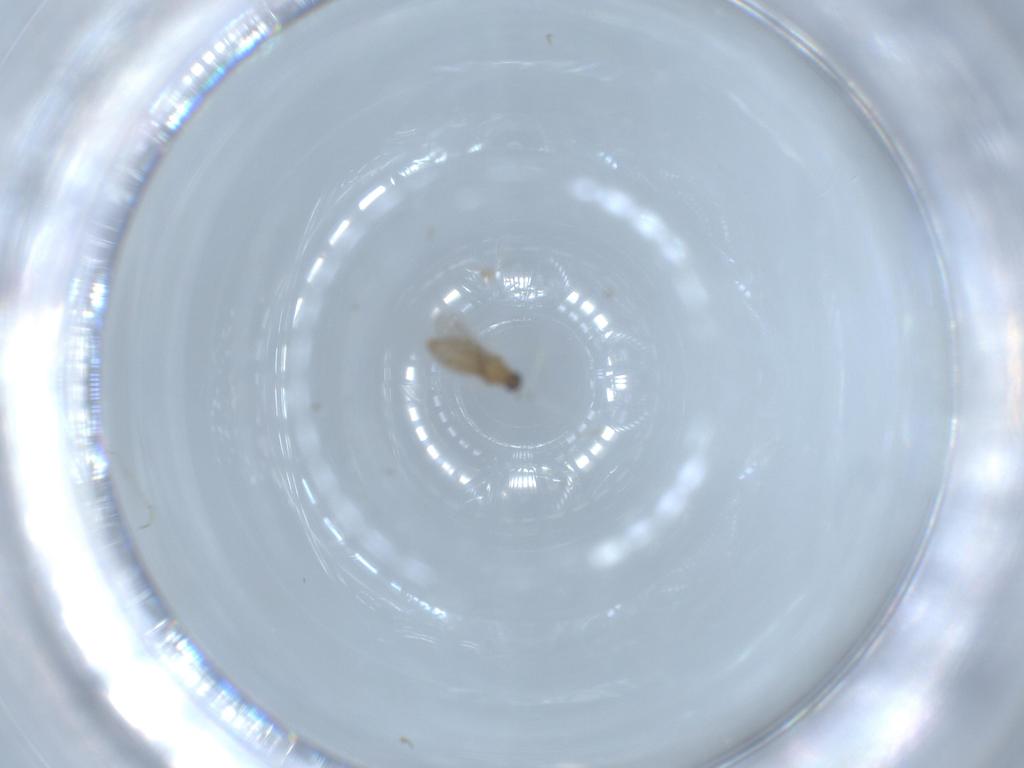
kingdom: Animalia
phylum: Arthropoda
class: Insecta
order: Diptera
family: Cecidomyiidae
